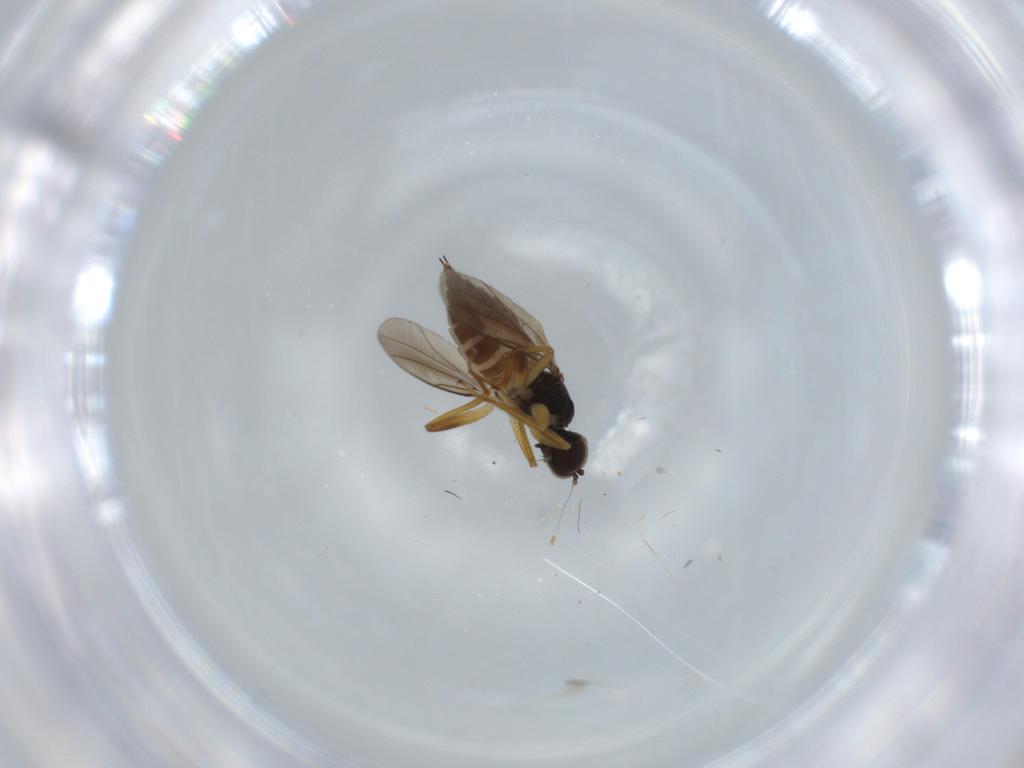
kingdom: Animalia
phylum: Arthropoda
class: Insecta
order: Diptera
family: Hybotidae
